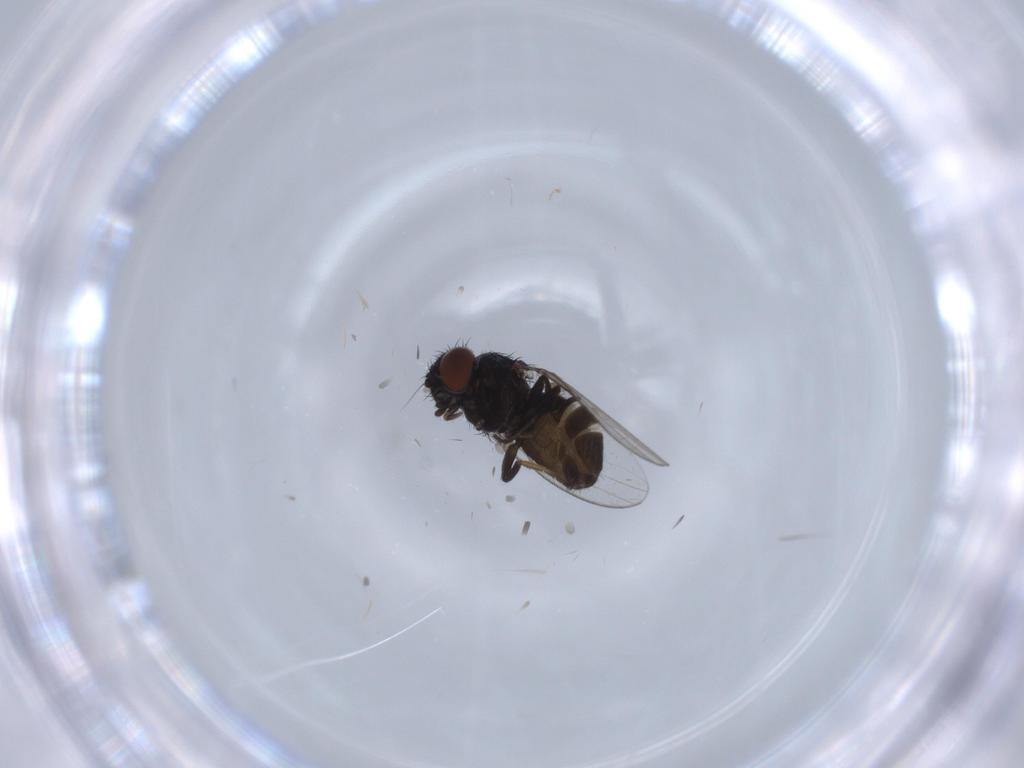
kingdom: Animalia
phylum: Arthropoda
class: Insecta
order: Diptera
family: Milichiidae
